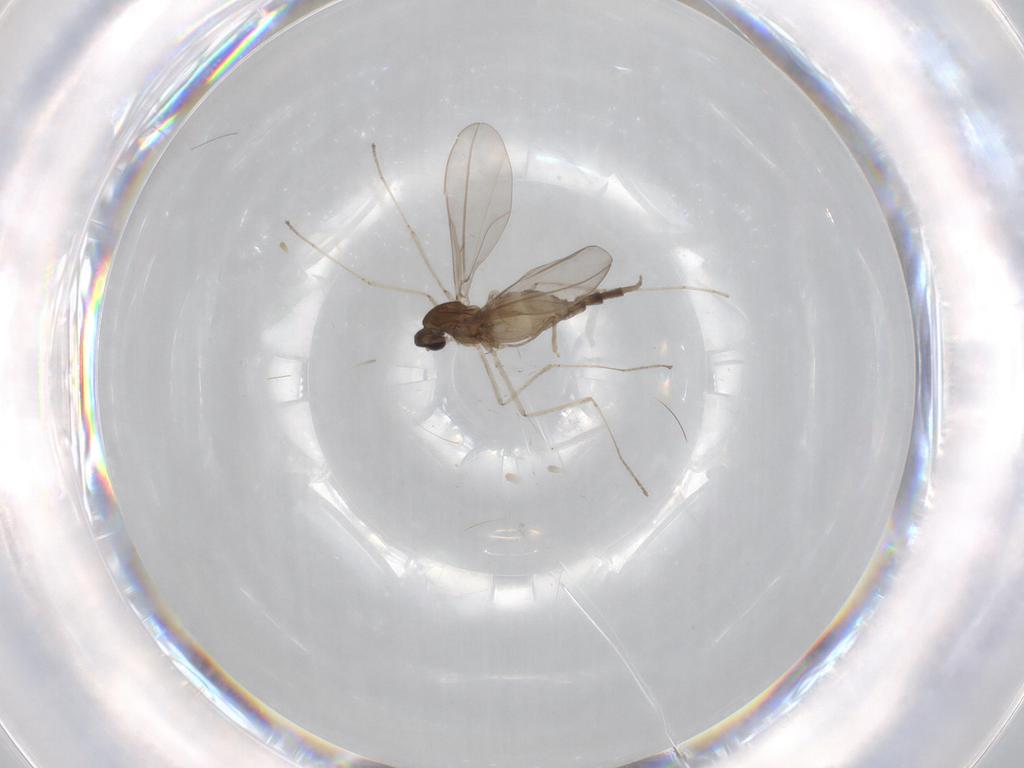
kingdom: Animalia
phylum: Arthropoda
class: Insecta
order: Diptera
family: Cecidomyiidae
